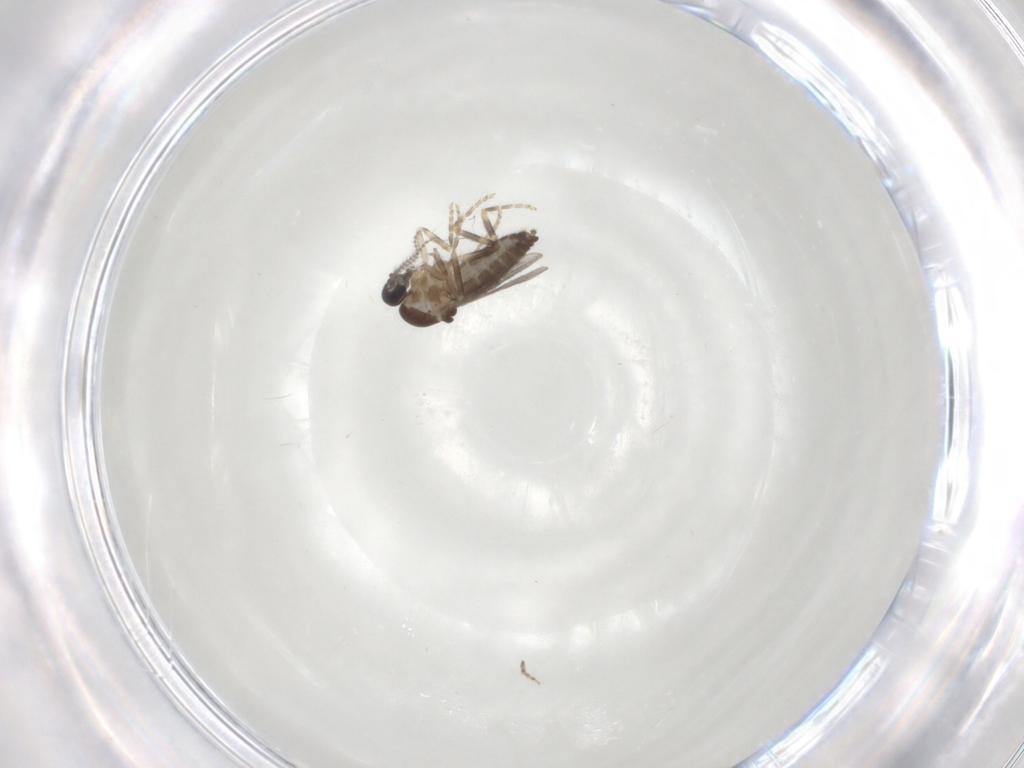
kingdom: Animalia
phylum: Arthropoda
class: Insecta
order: Diptera
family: Ceratopogonidae
